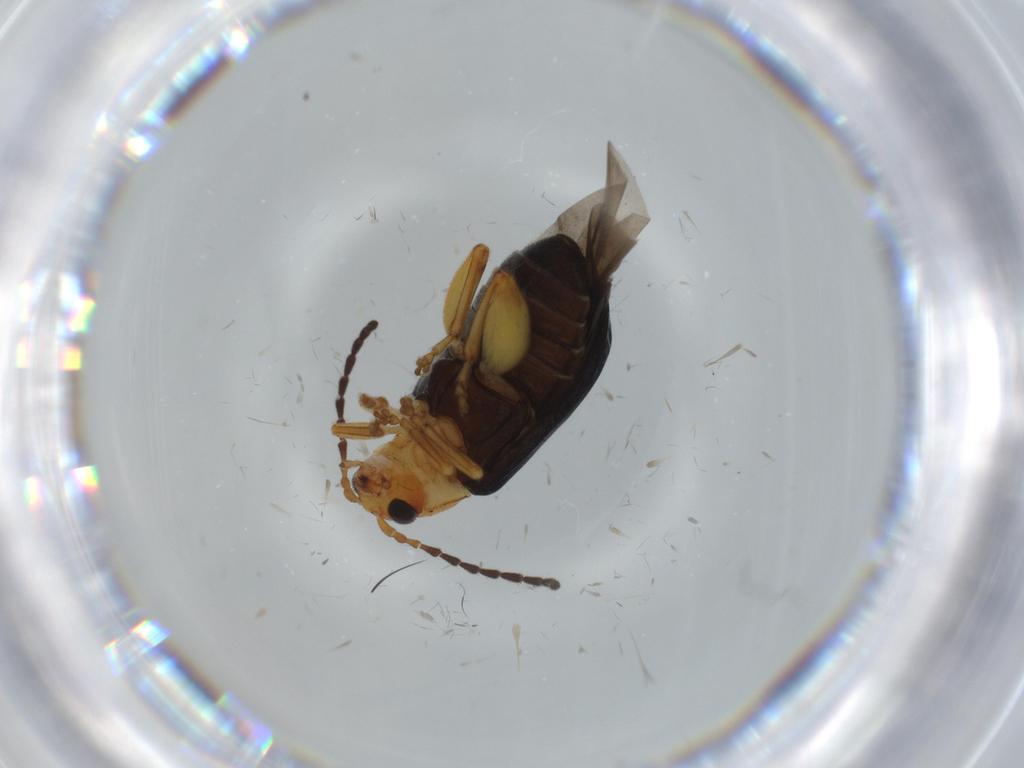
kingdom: Animalia
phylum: Arthropoda
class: Insecta
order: Coleoptera
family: Chrysomelidae
